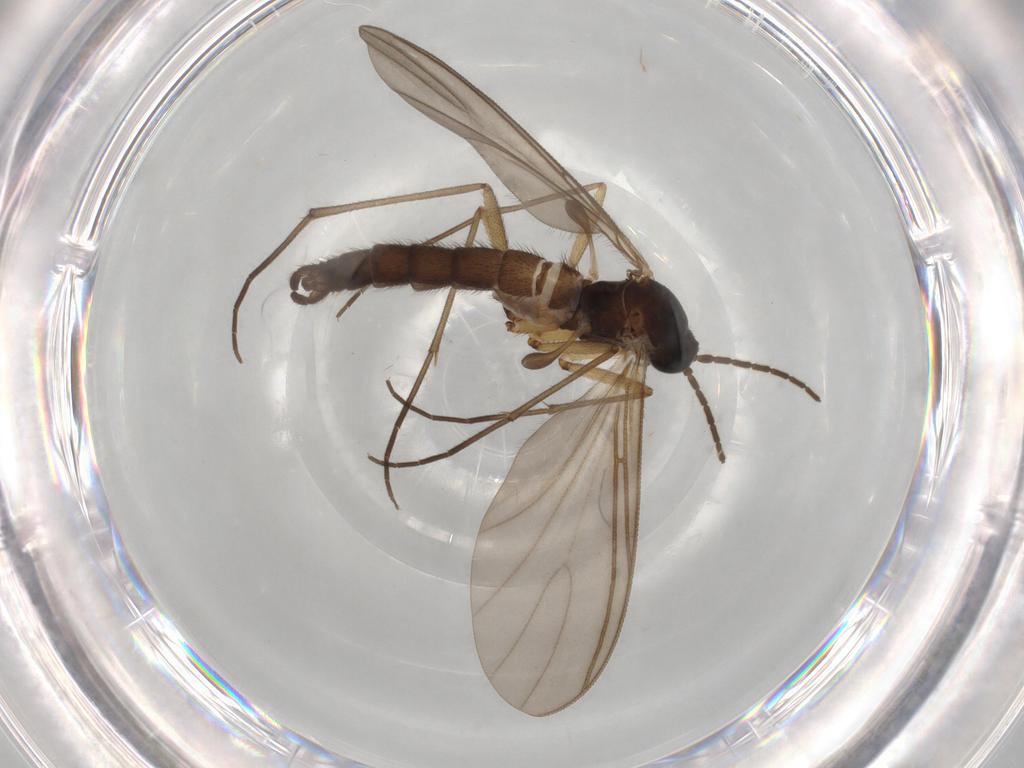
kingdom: Animalia
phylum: Arthropoda
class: Insecta
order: Diptera
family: Sciaridae
